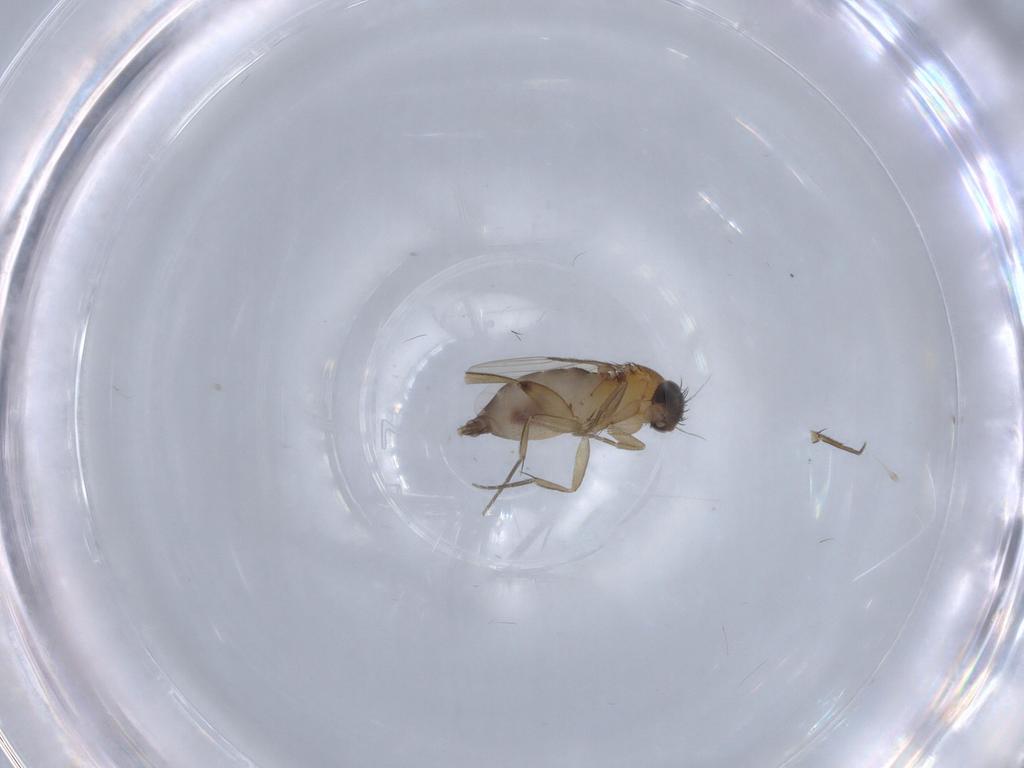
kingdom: Animalia
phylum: Arthropoda
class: Insecta
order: Diptera
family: Phoridae
